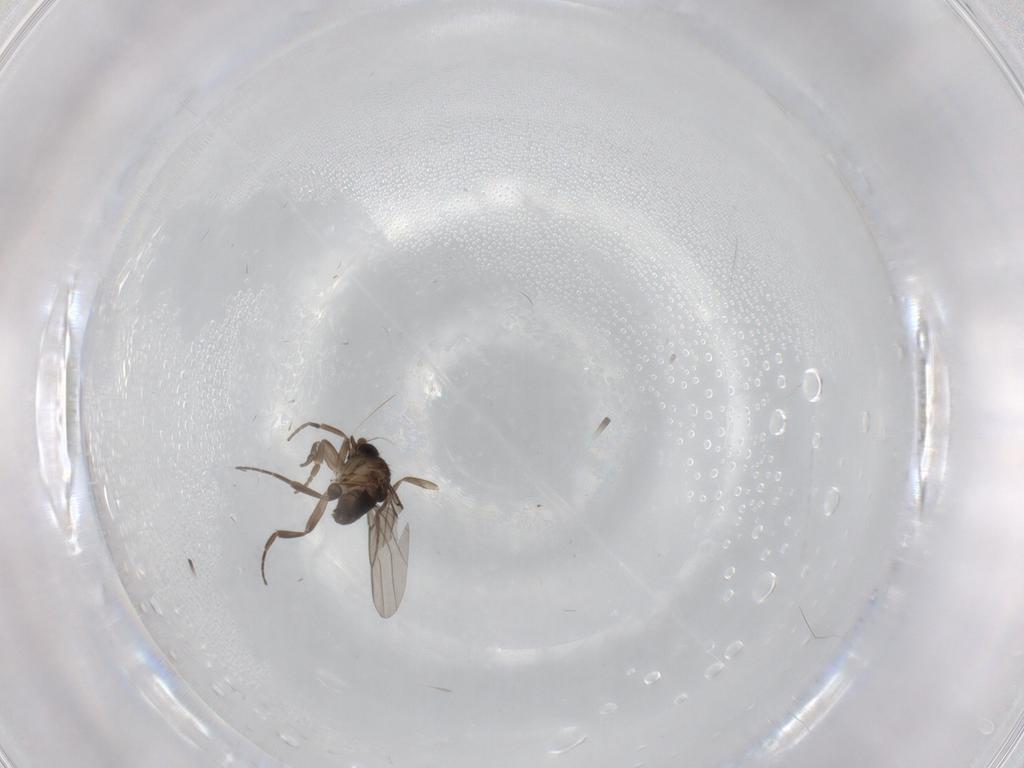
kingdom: Animalia
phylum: Arthropoda
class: Insecta
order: Diptera
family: Phoridae
